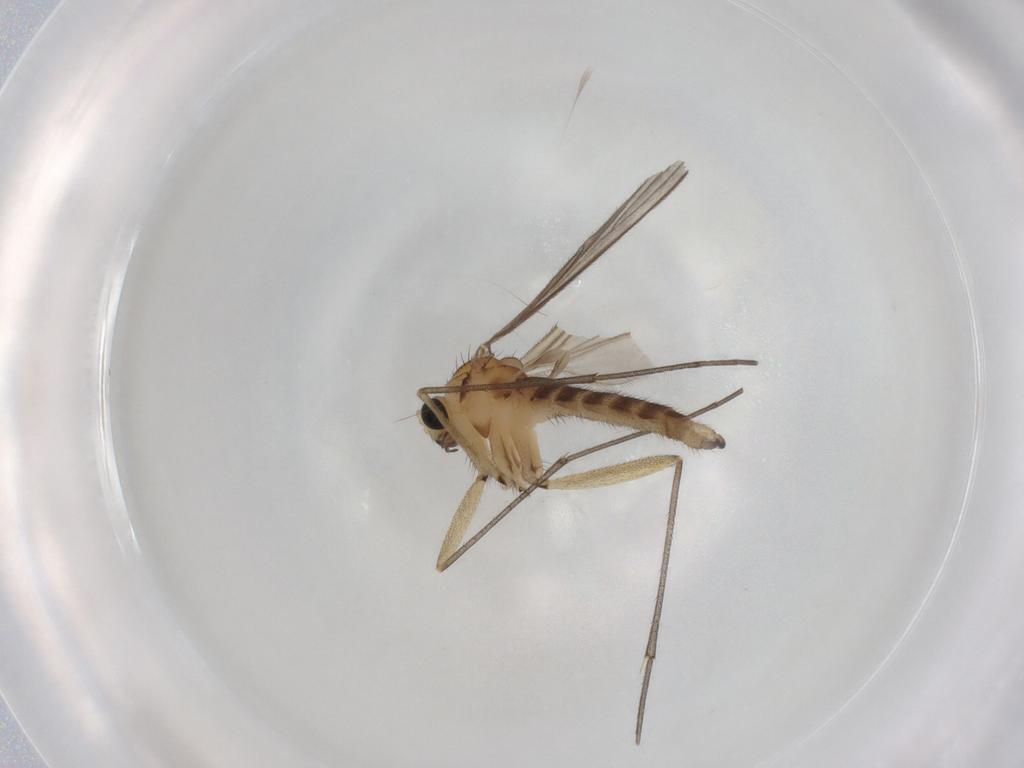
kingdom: Animalia
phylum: Arthropoda
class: Insecta
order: Diptera
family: Sciaridae
